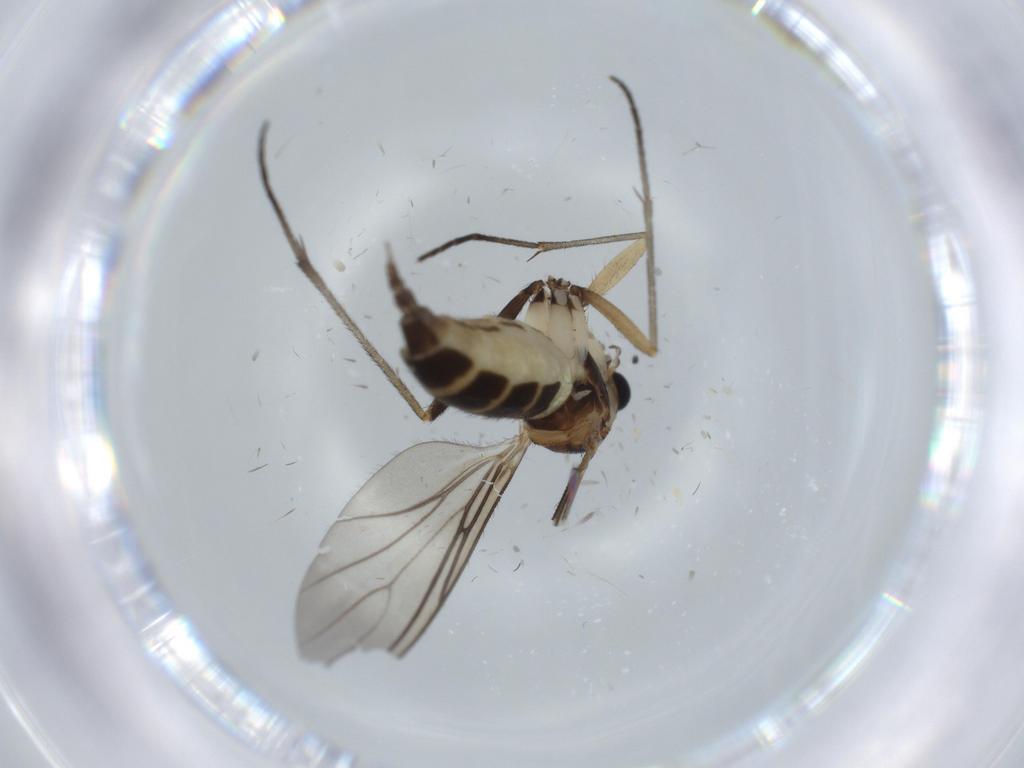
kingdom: Animalia
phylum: Arthropoda
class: Insecta
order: Diptera
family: Sciaridae
